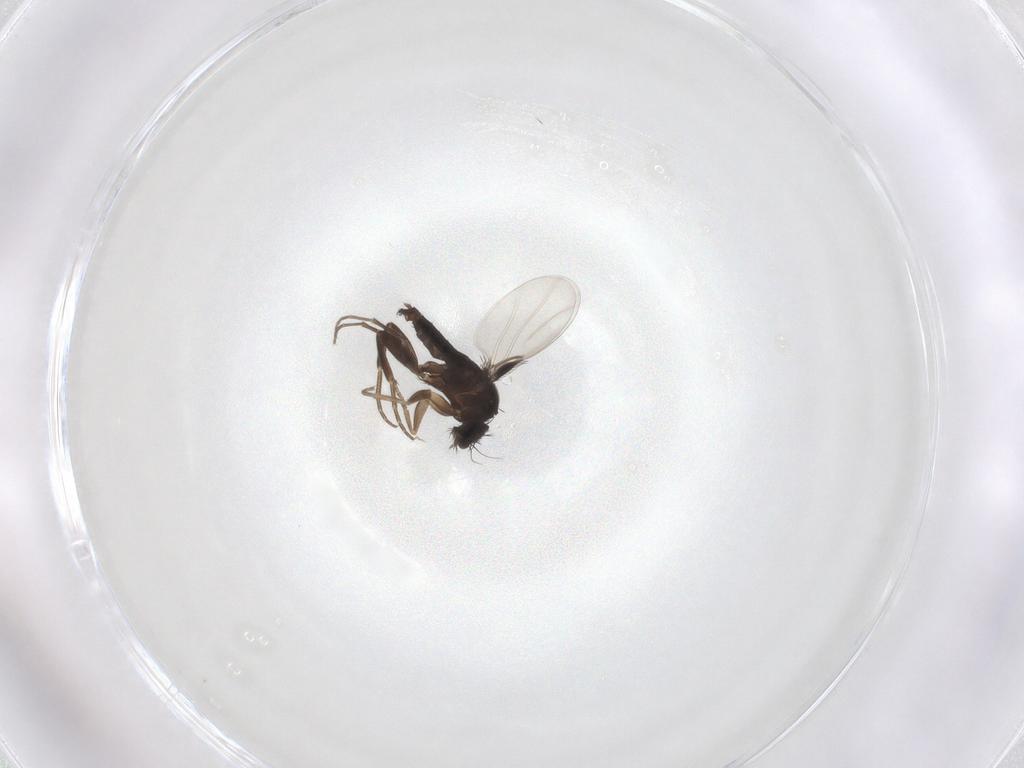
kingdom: Animalia
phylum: Arthropoda
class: Insecta
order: Diptera
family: Phoridae
